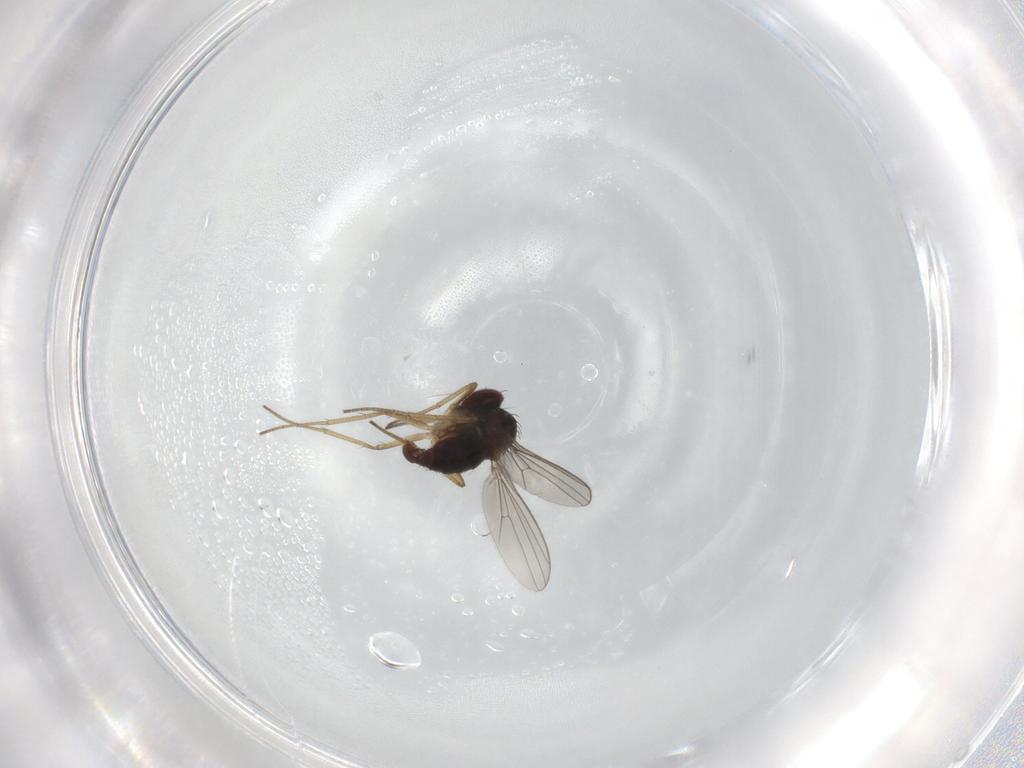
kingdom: Animalia
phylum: Arthropoda
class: Insecta
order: Diptera
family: Dolichopodidae
